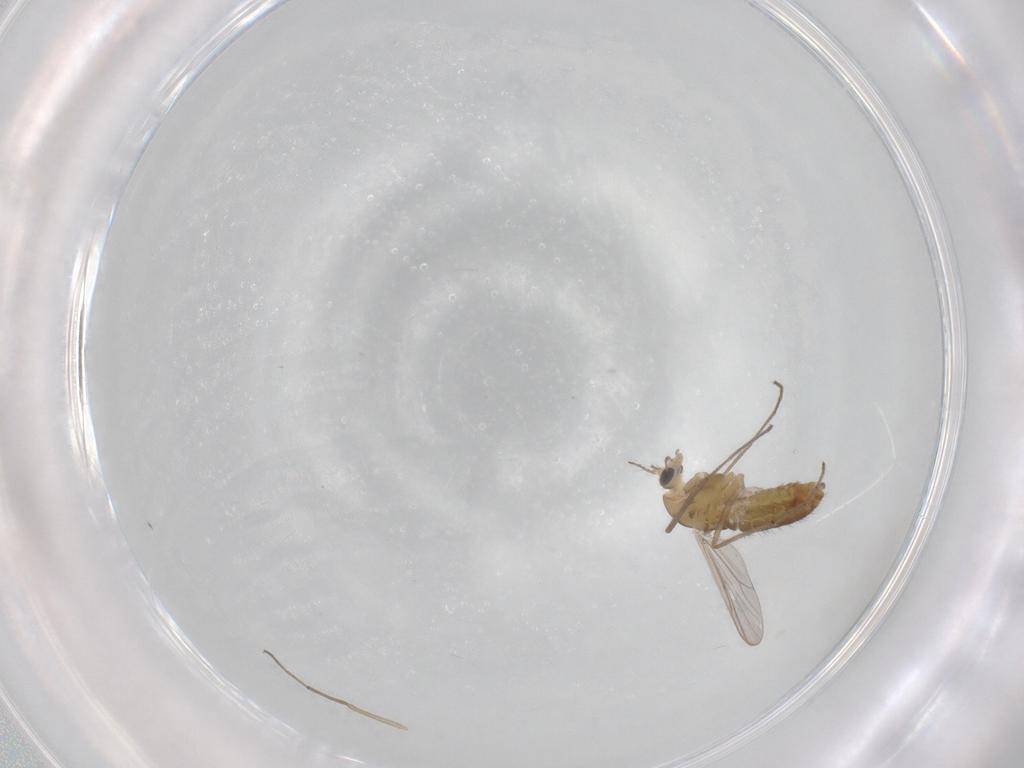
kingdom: Animalia
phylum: Arthropoda
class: Insecta
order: Diptera
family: Chironomidae
